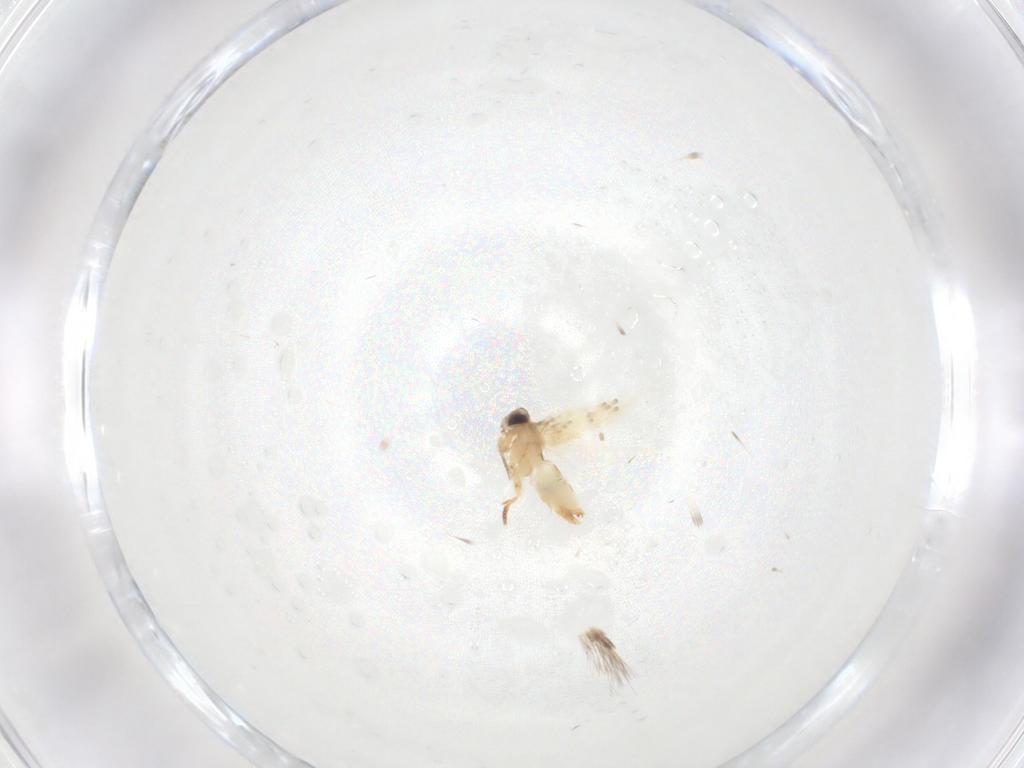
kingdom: Animalia
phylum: Arthropoda
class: Insecta
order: Lepidoptera
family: Crambidae
